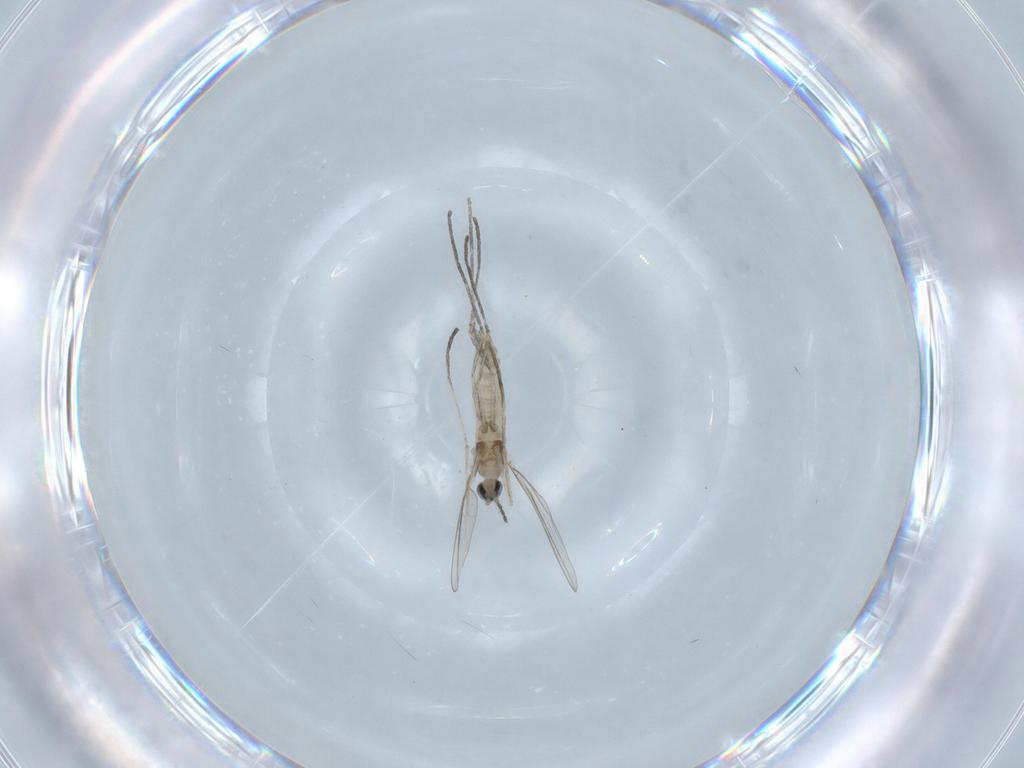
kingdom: Animalia
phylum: Arthropoda
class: Insecta
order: Diptera
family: Cecidomyiidae
